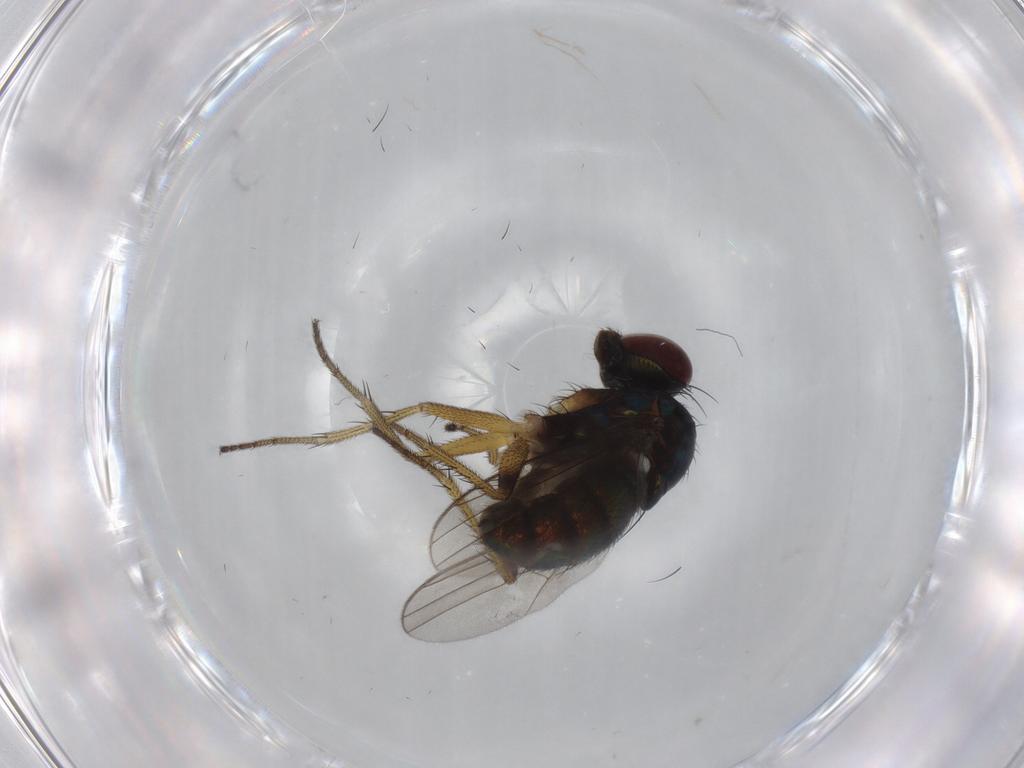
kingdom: Animalia
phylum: Arthropoda
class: Insecta
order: Diptera
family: Dolichopodidae
